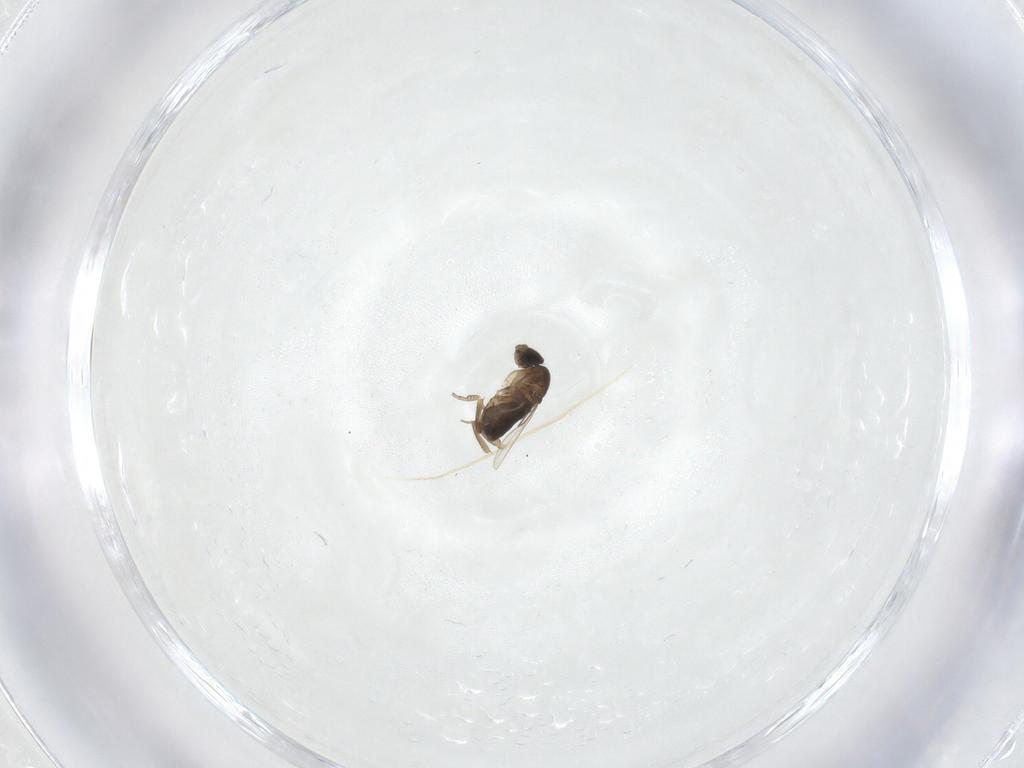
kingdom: Animalia
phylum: Arthropoda
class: Insecta
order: Diptera
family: Phoridae
